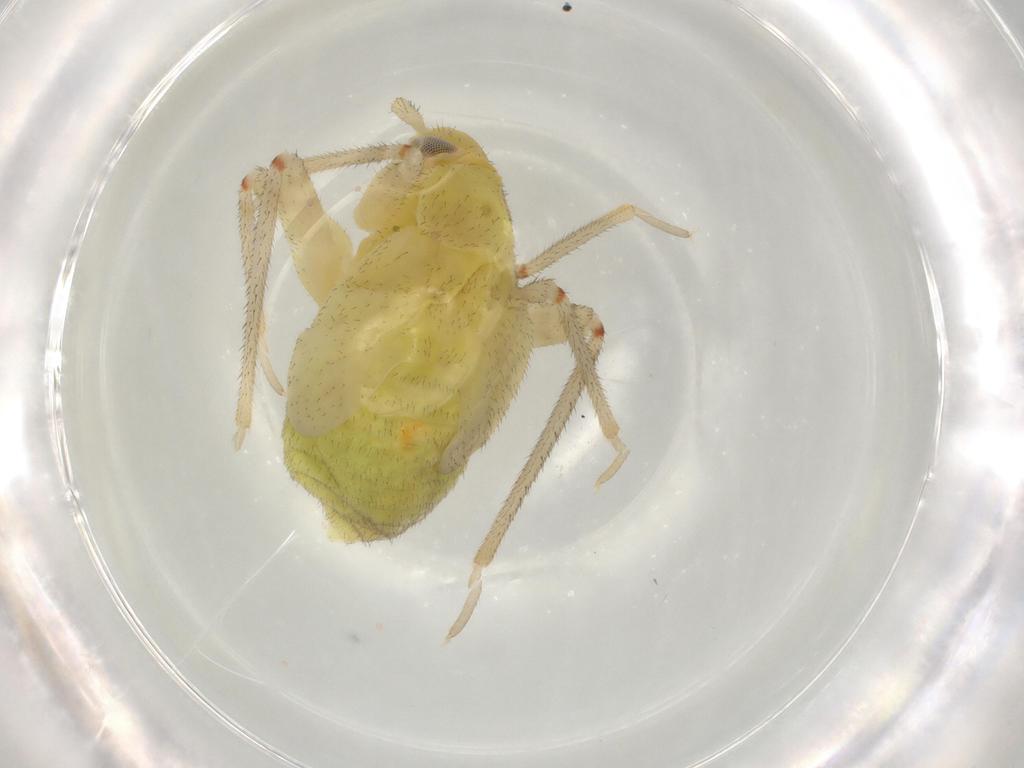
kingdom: Animalia
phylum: Arthropoda
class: Insecta
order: Hemiptera
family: Miridae
